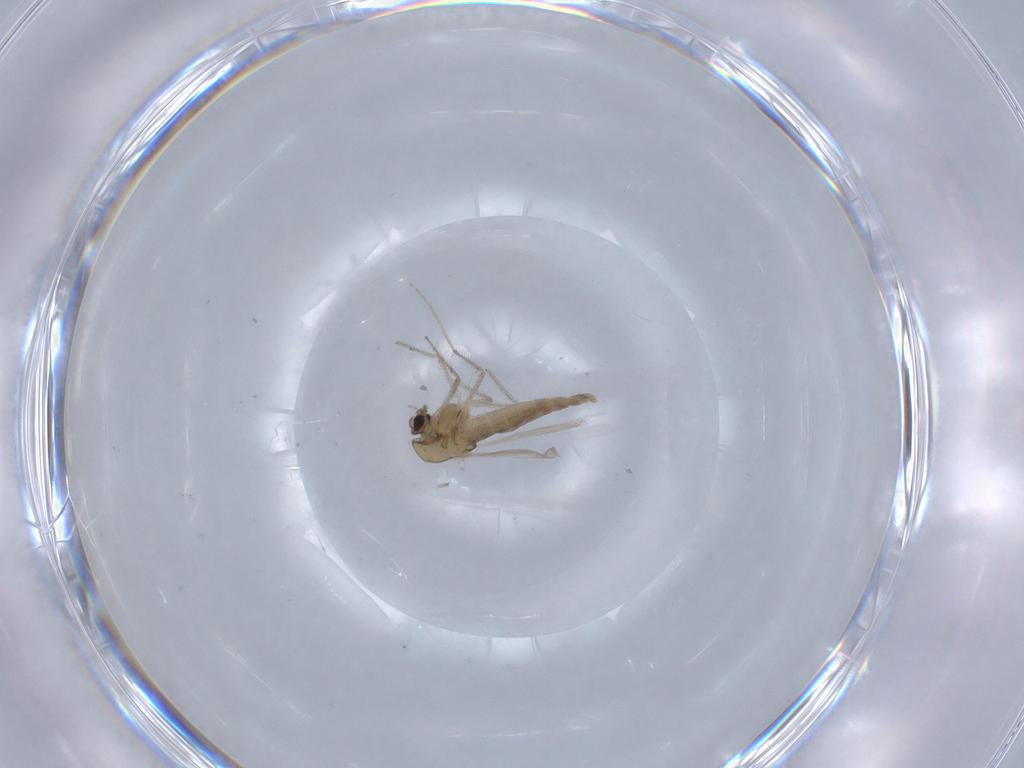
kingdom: Animalia
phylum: Arthropoda
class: Insecta
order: Diptera
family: Chironomidae
